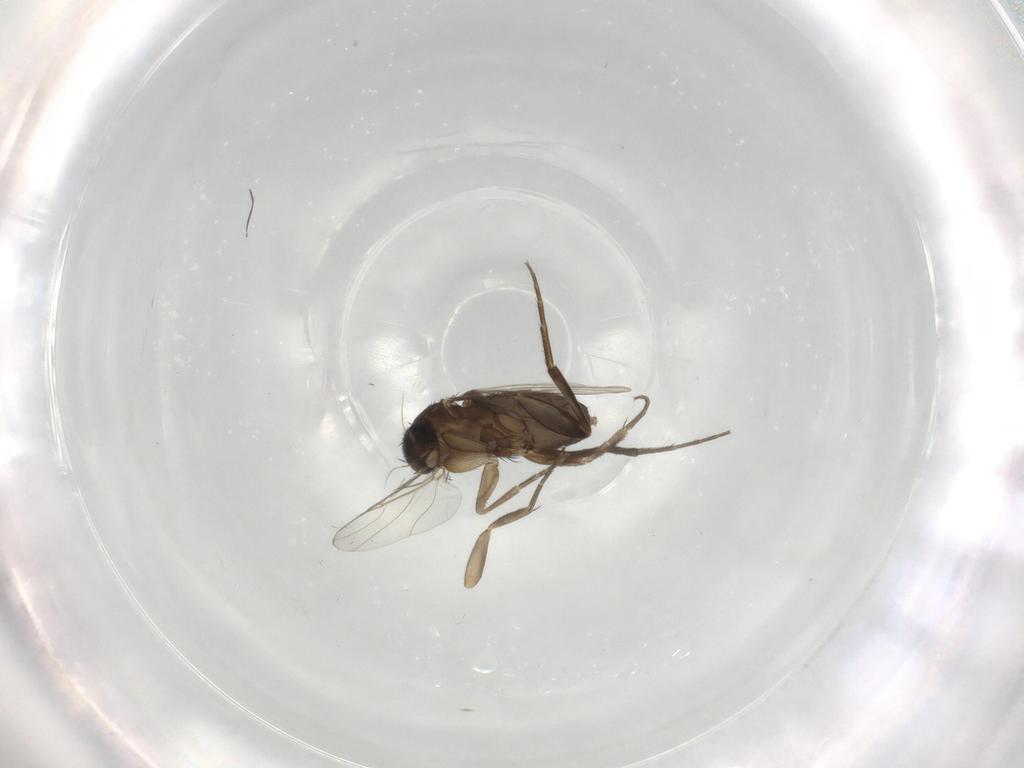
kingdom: Animalia
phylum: Arthropoda
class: Insecta
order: Diptera
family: Phoridae
